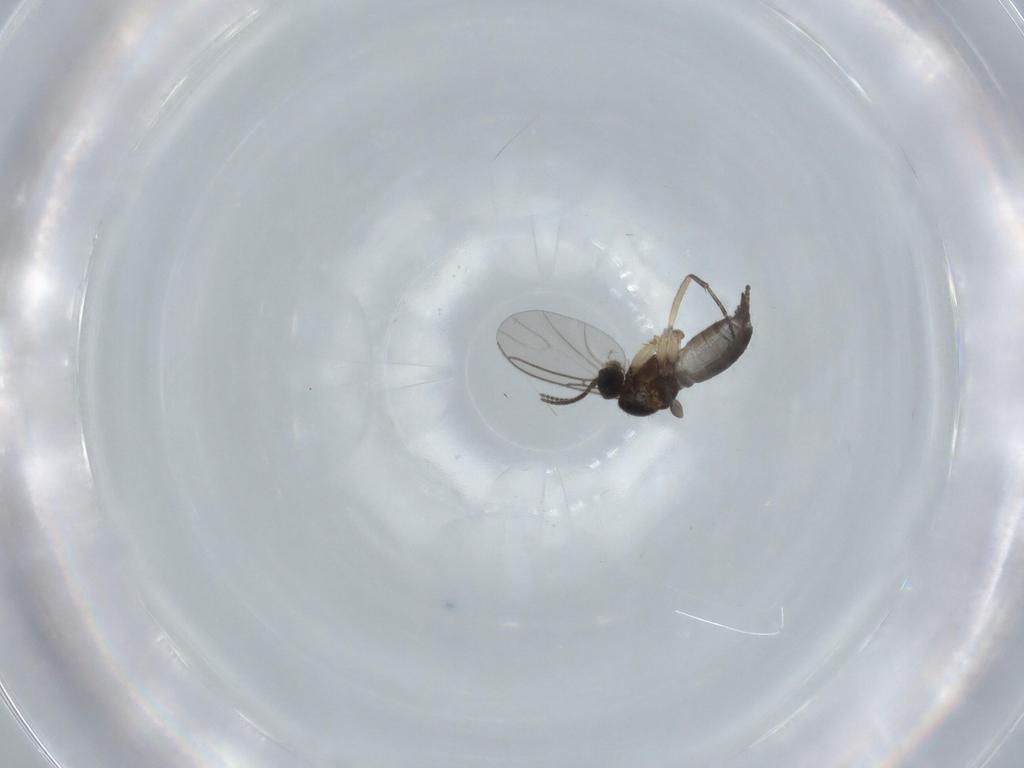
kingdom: Animalia
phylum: Arthropoda
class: Insecta
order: Diptera
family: Sciaridae
